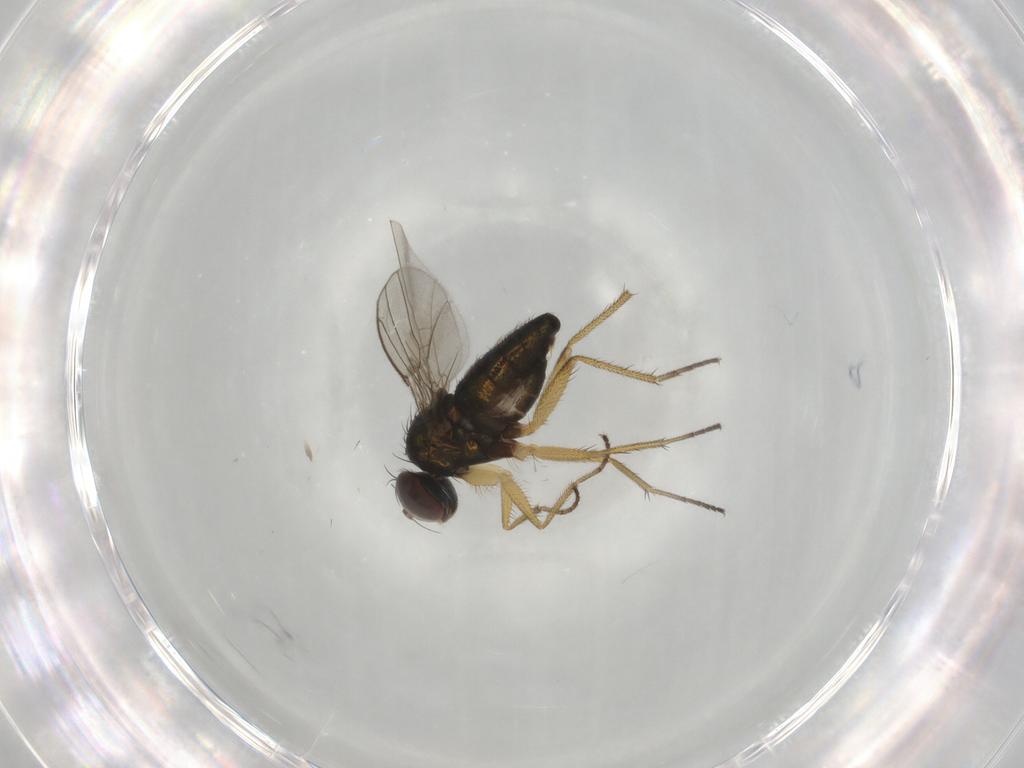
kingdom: Animalia
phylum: Arthropoda
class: Insecta
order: Diptera
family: Dolichopodidae
